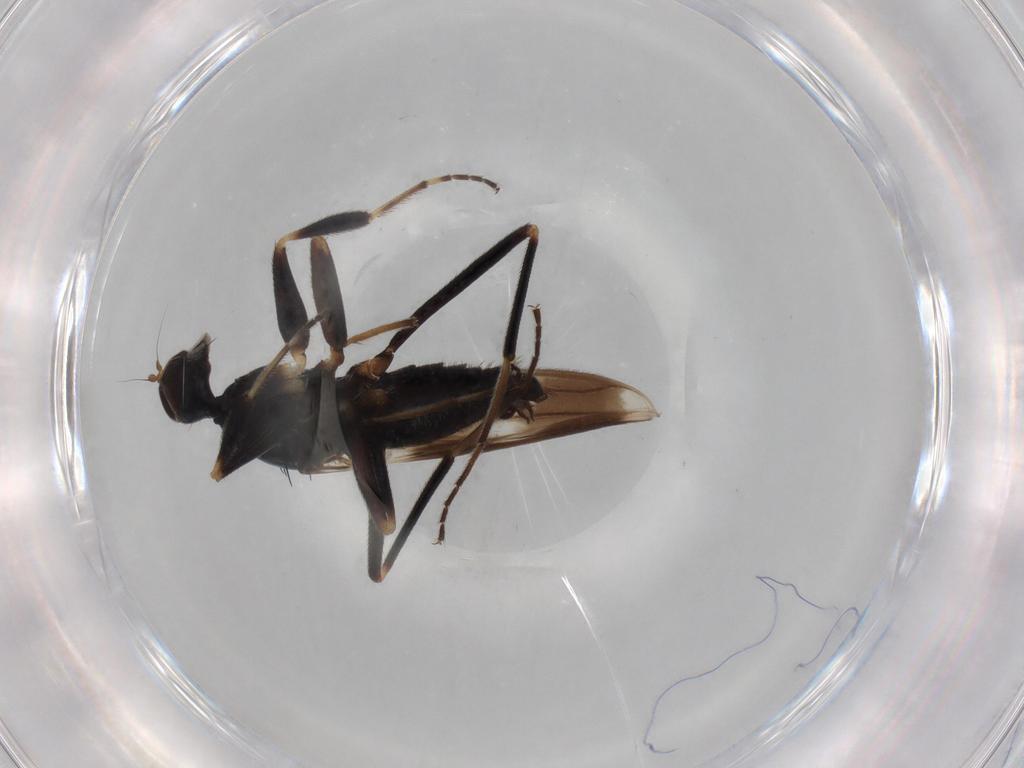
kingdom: Animalia
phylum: Arthropoda
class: Insecta
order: Diptera
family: Hybotidae
